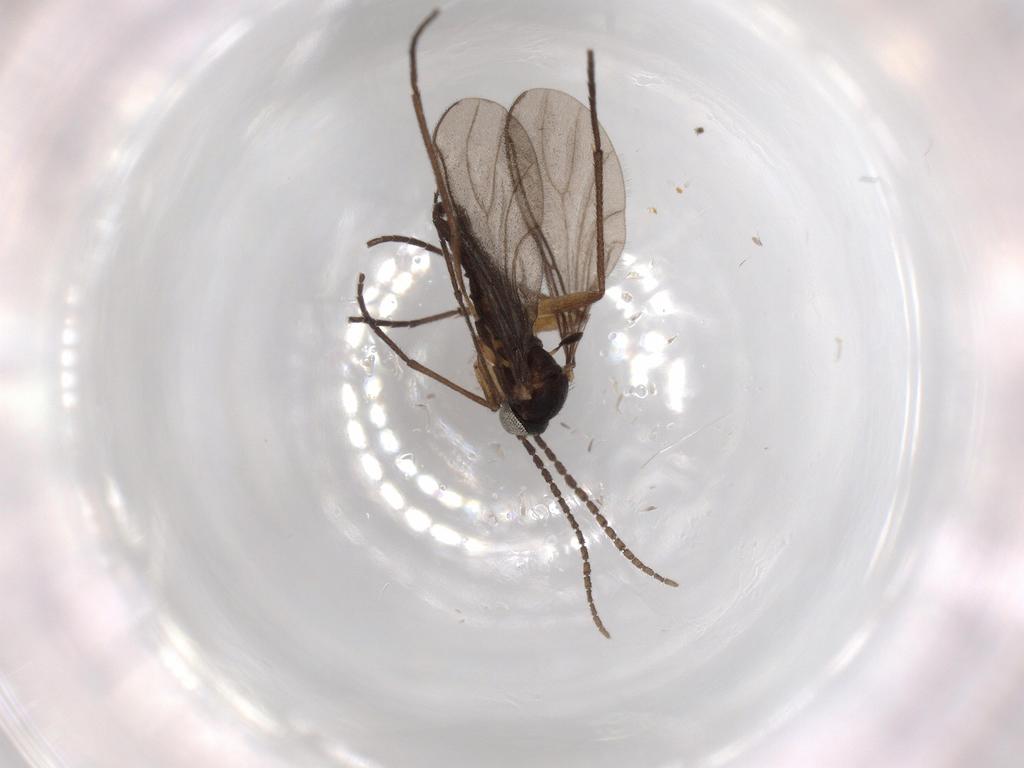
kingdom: Animalia
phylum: Arthropoda
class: Insecta
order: Diptera
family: Sciaridae
